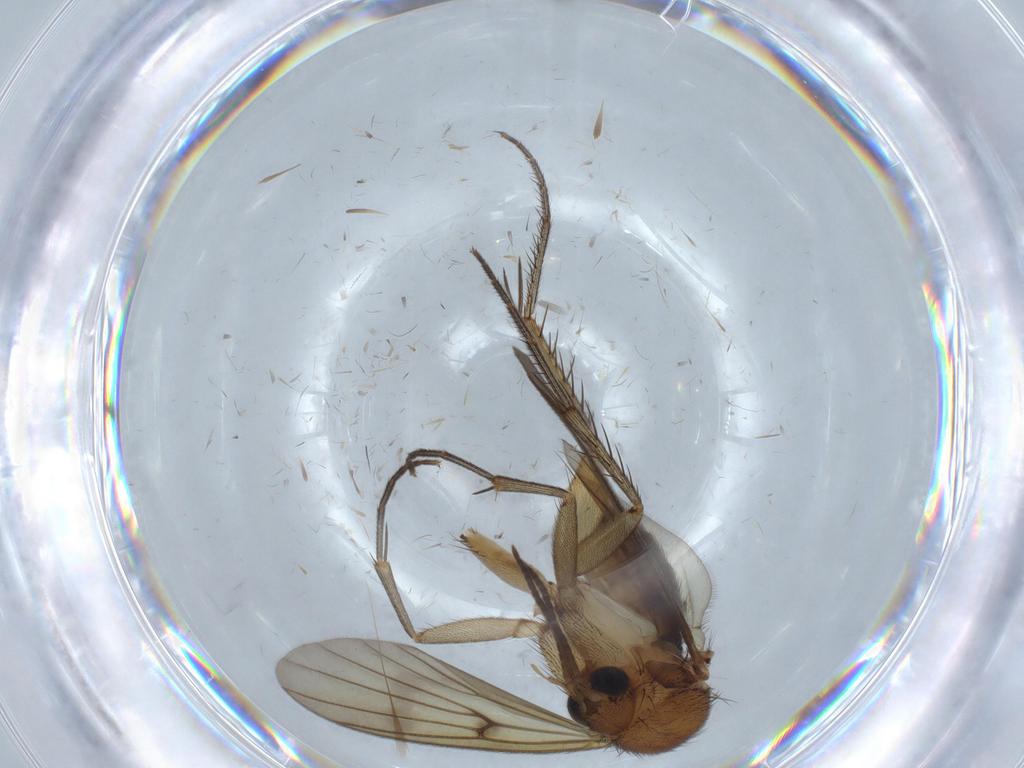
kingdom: Animalia
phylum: Arthropoda
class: Insecta
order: Diptera
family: Mycetophilidae
